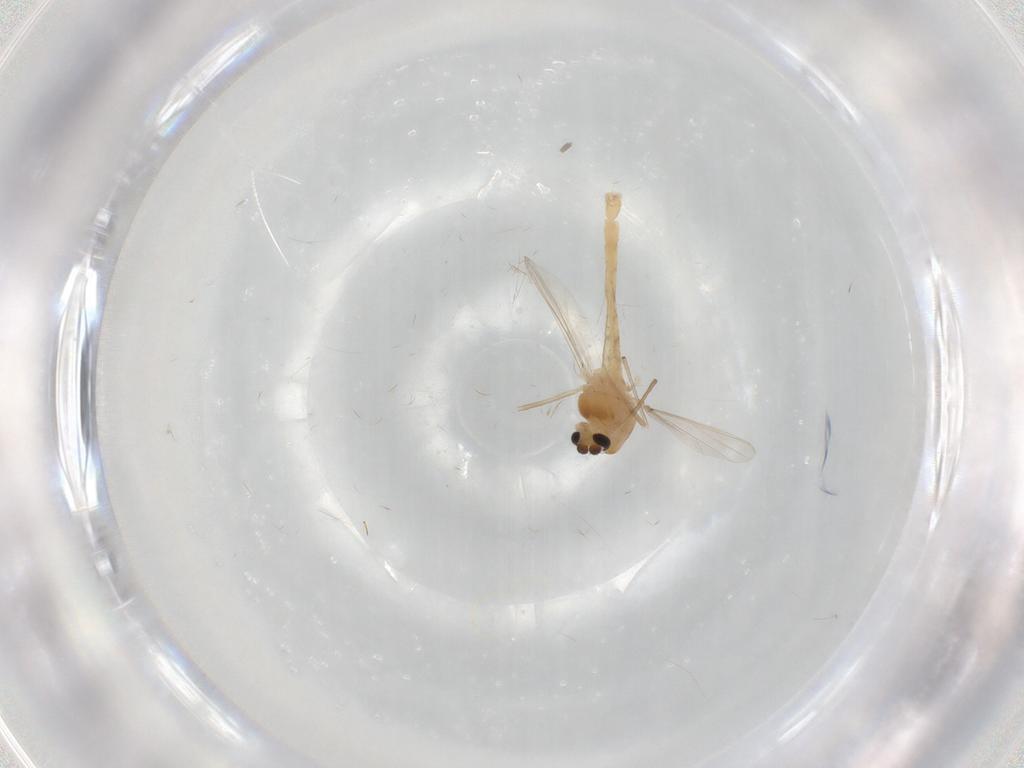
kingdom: Animalia
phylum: Arthropoda
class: Insecta
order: Diptera
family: Chironomidae
